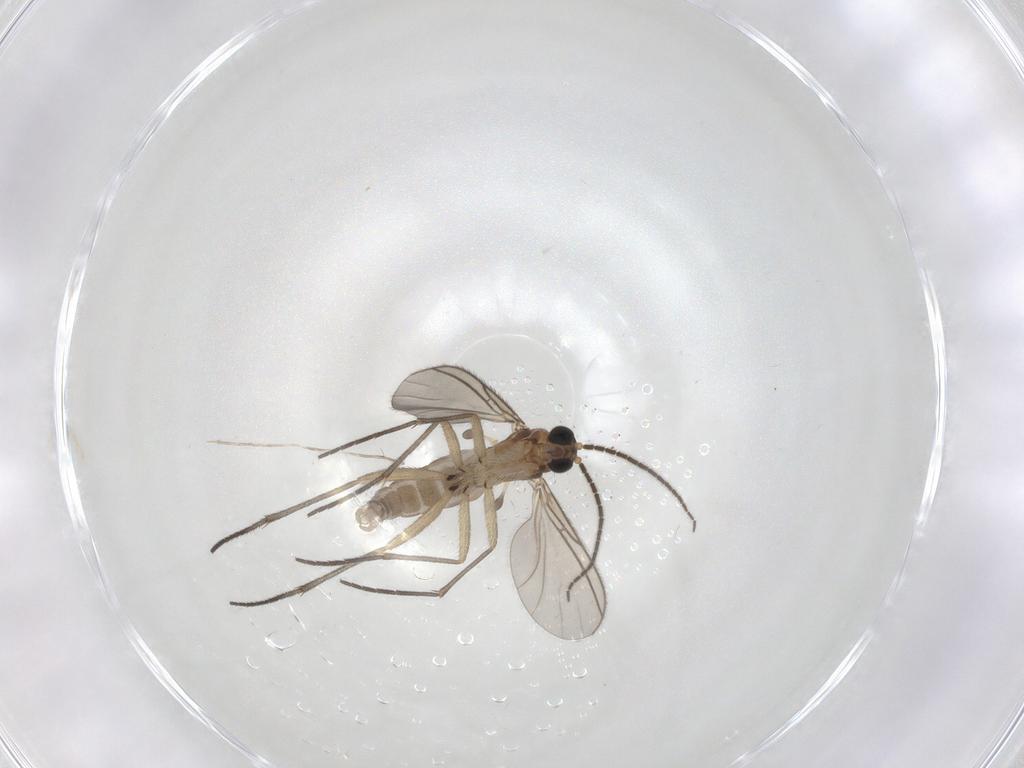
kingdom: Animalia
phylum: Arthropoda
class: Insecta
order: Diptera
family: Sciaridae
